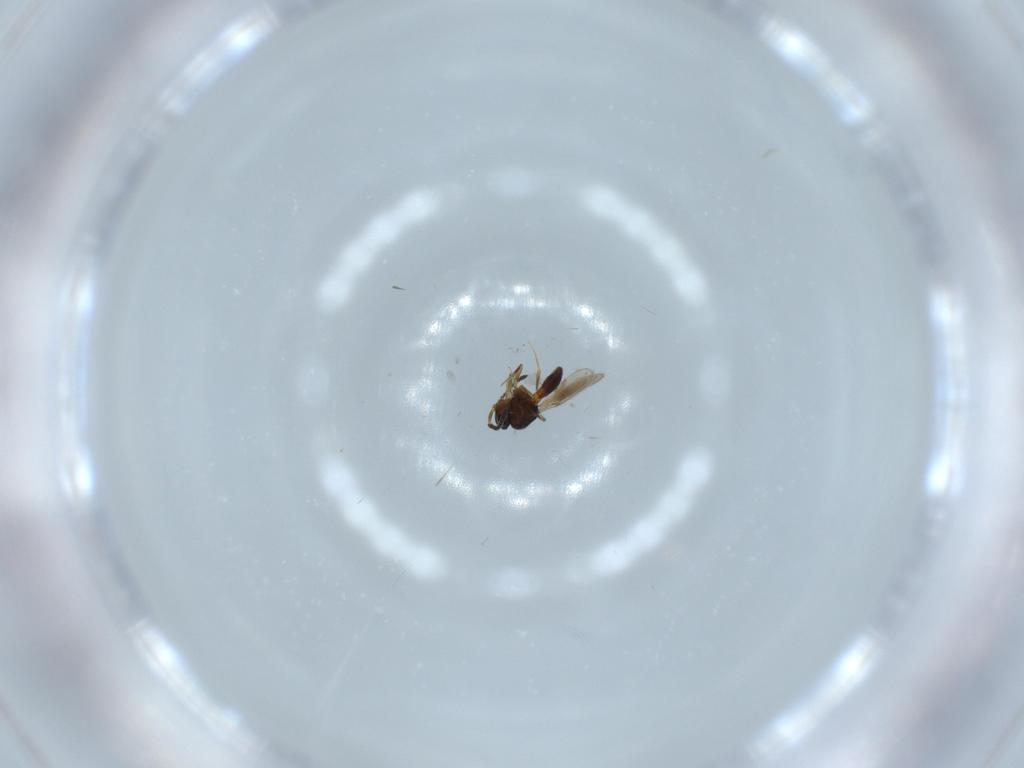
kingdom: Animalia
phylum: Arthropoda
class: Insecta
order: Hymenoptera
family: Scelionidae
